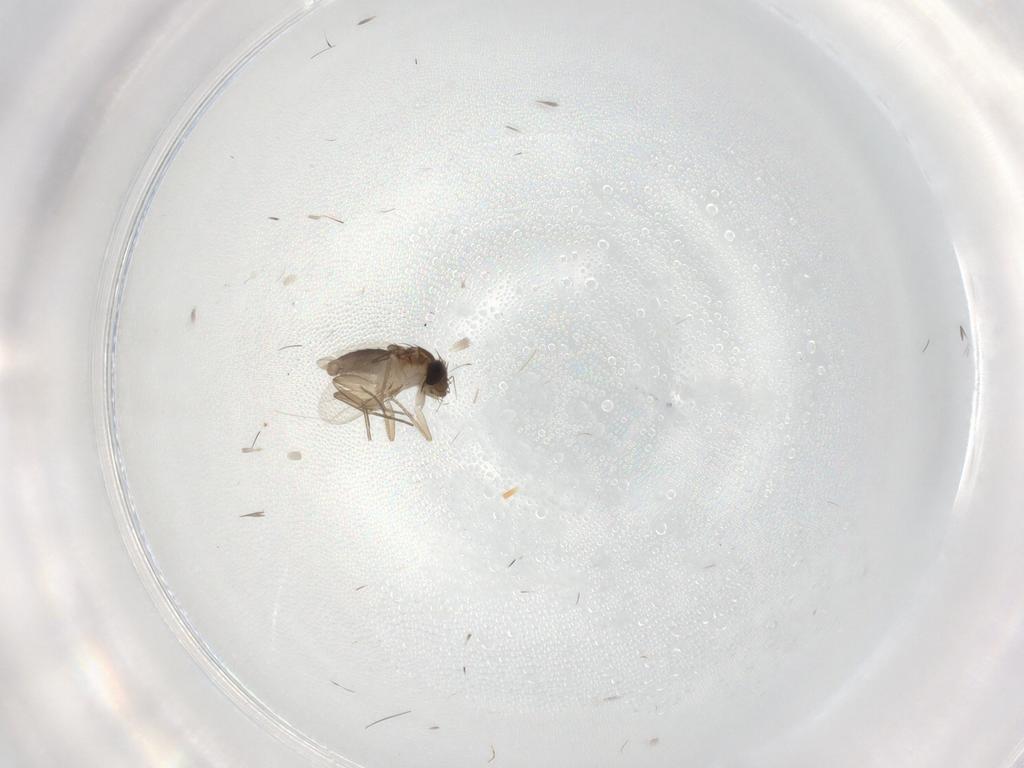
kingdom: Animalia
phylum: Arthropoda
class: Insecta
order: Diptera
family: Phoridae
